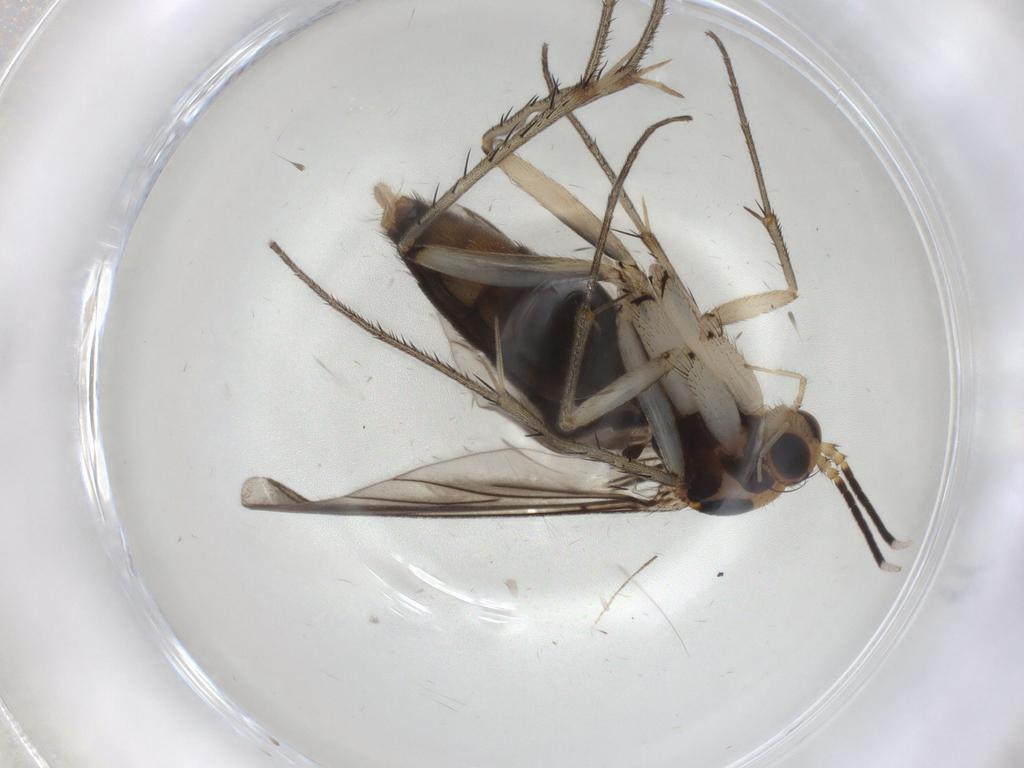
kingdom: Animalia
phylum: Arthropoda
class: Insecta
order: Diptera
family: Mycetophilidae
